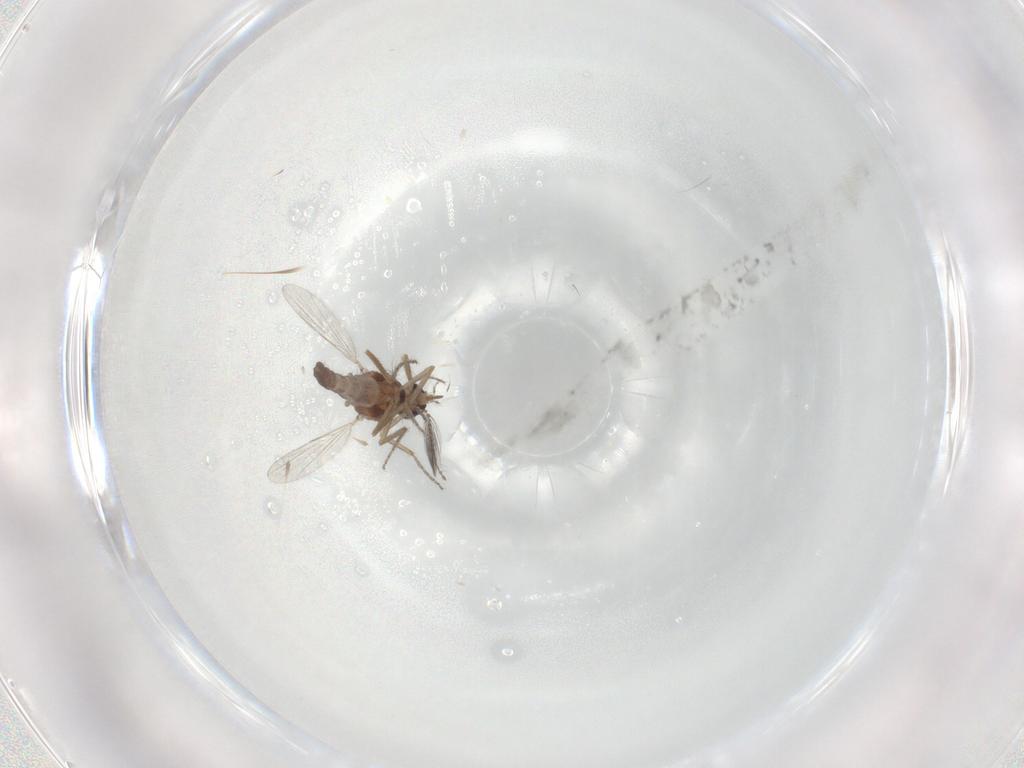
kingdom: Animalia
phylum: Arthropoda
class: Insecta
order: Diptera
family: Ceratopogonidae
